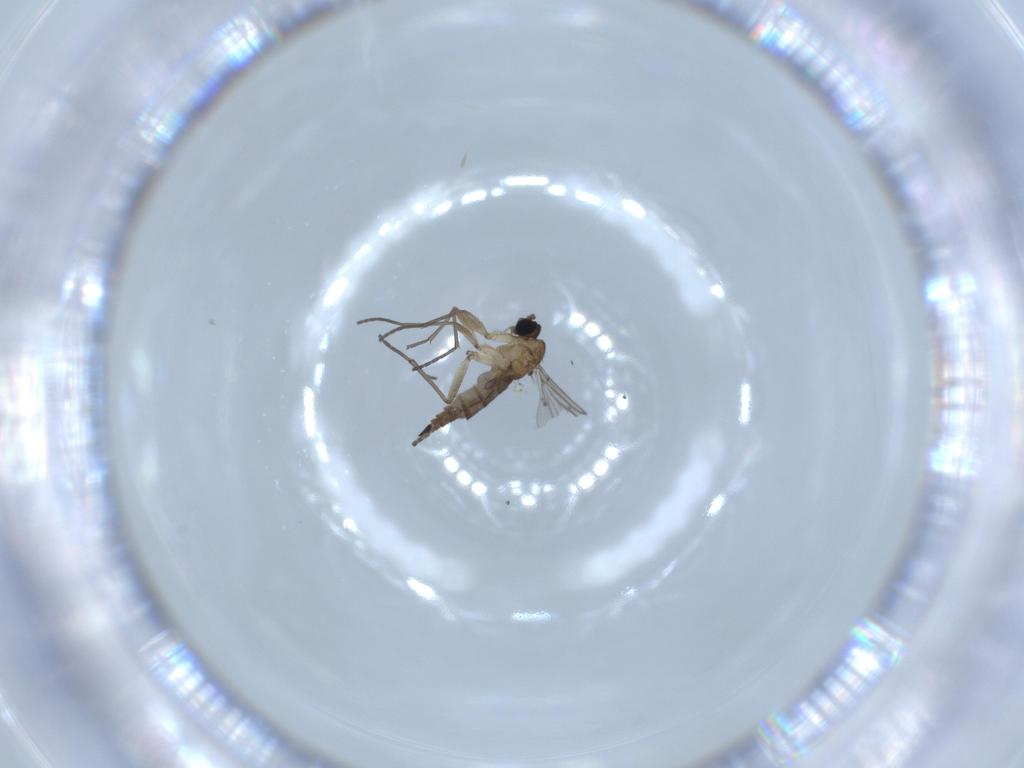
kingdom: Animalia
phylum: Arthropoda
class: Insecta
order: Diptera
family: Sciaridae
